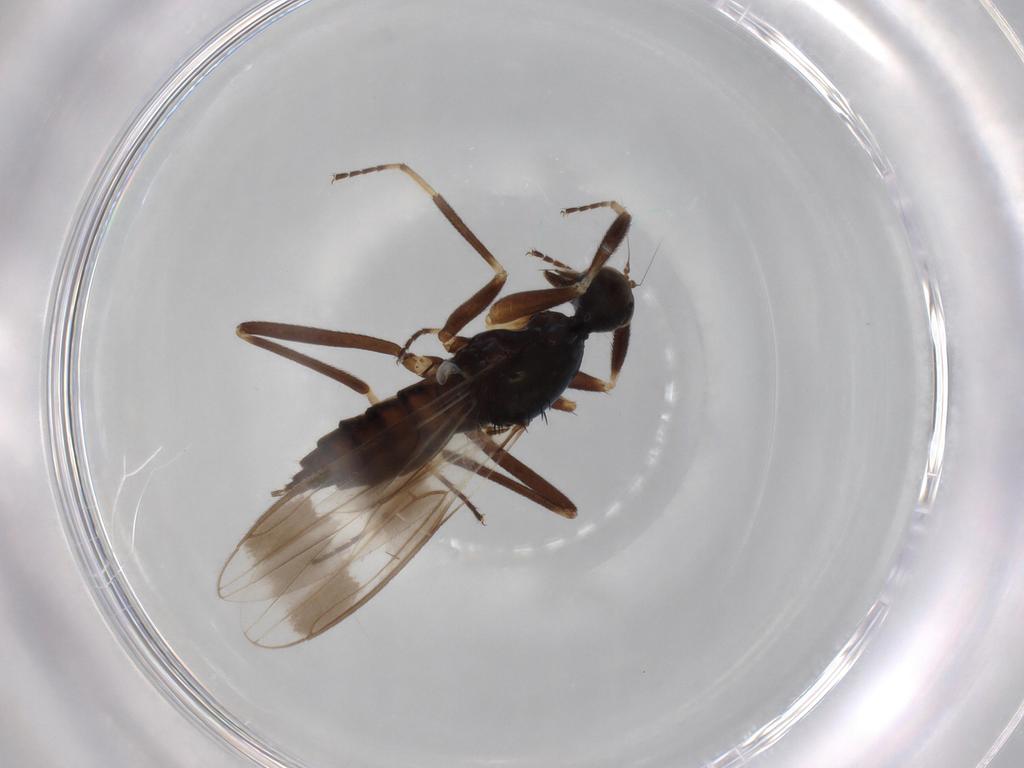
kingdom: Animalia
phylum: Arthropoda
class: Insecta
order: Diptera
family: Hybotidae
